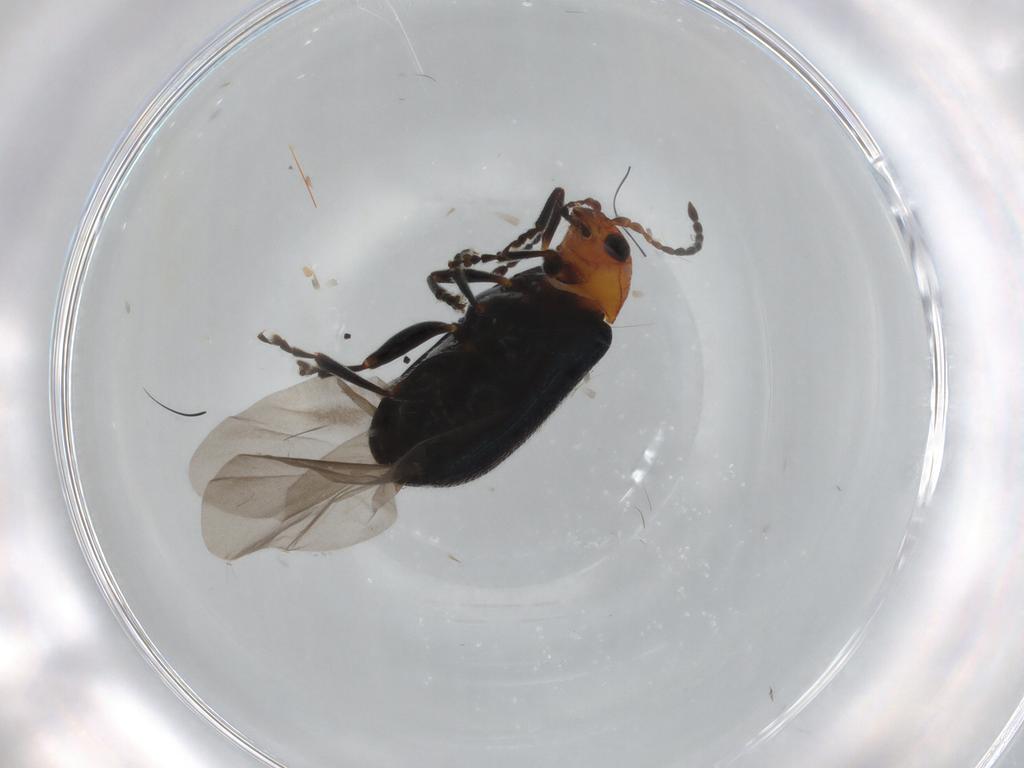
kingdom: Animalia
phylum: Arthropoda
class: Insecta
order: Coleoptera
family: Chrysomelidae
